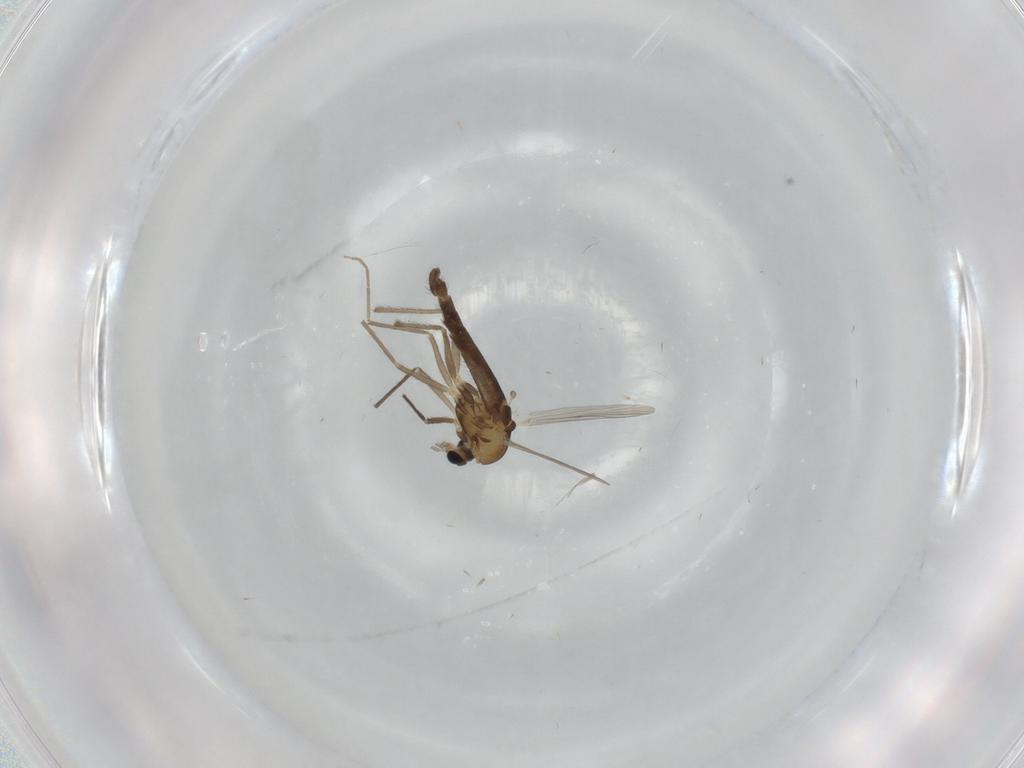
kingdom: Animalia
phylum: Arthropoda
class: Insecta
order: Diptera
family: Chironomidae
